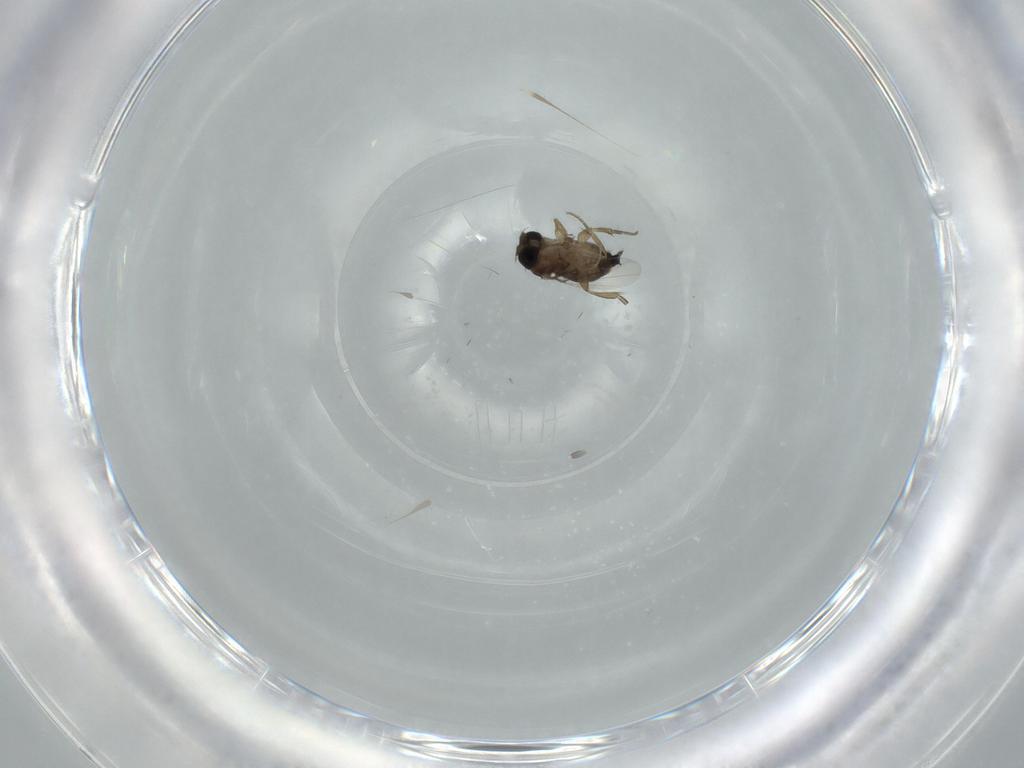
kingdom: Animalia
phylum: Arthropoda
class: Insecta
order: Diptera
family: Phoridae
